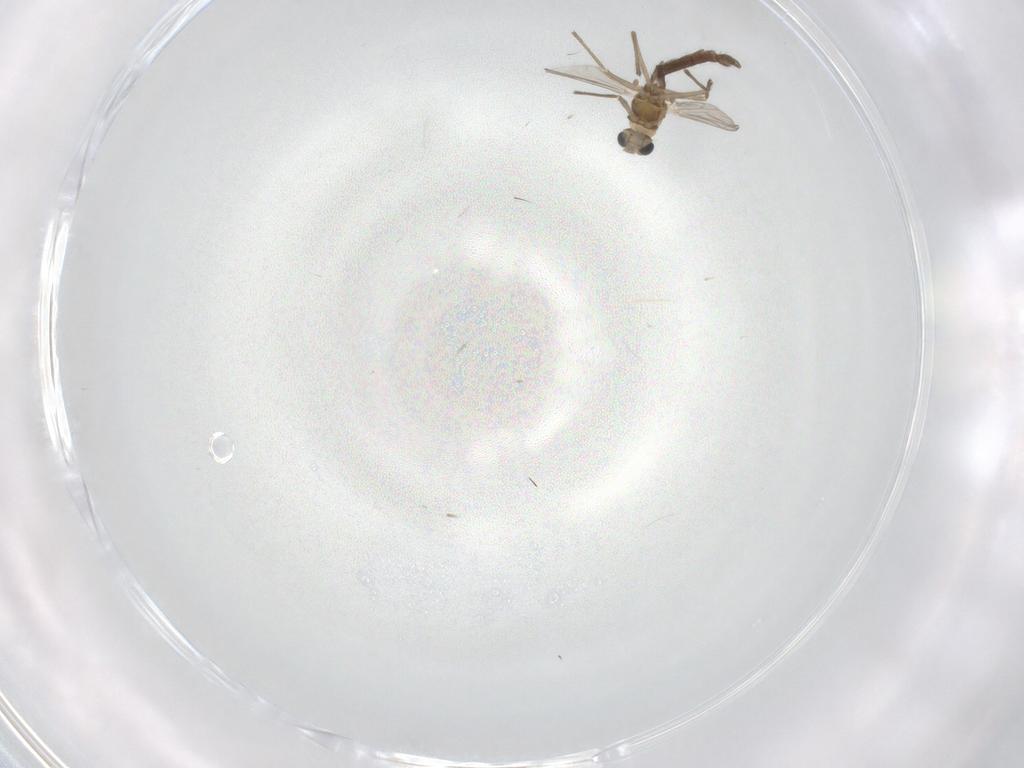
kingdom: Animalia
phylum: Arthropoda
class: Insecta
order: Diptera
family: Chironomidae
